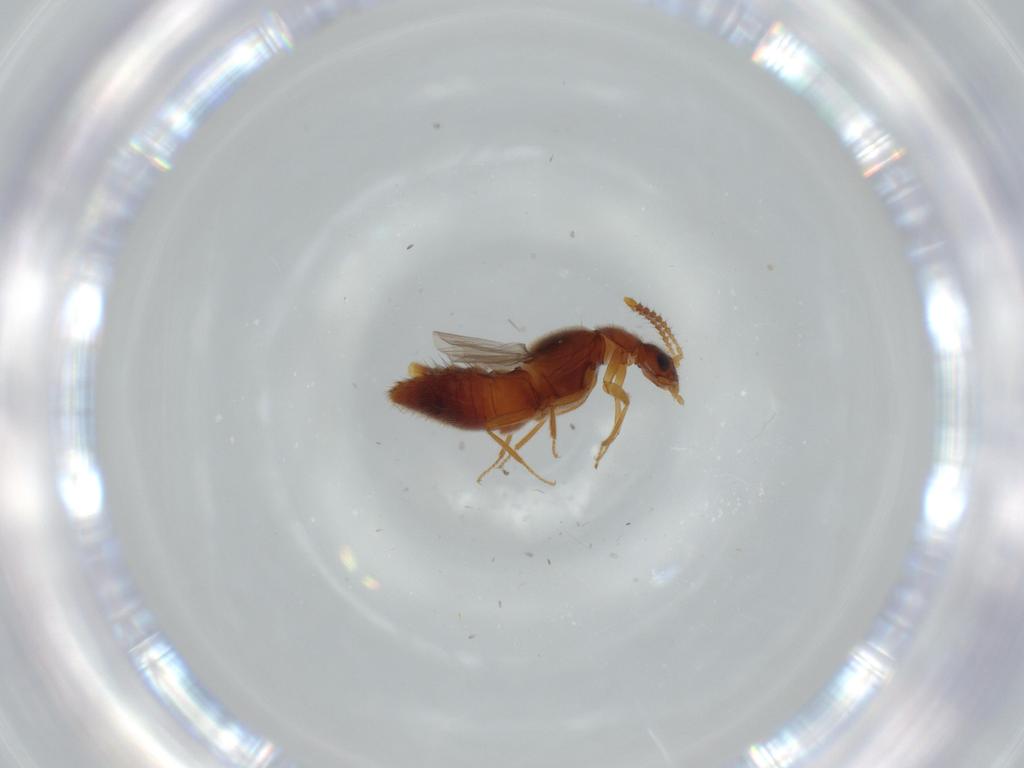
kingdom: Animalia
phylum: Arthropoda
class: Insecta
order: Coleoptera
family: Staphylinidae
